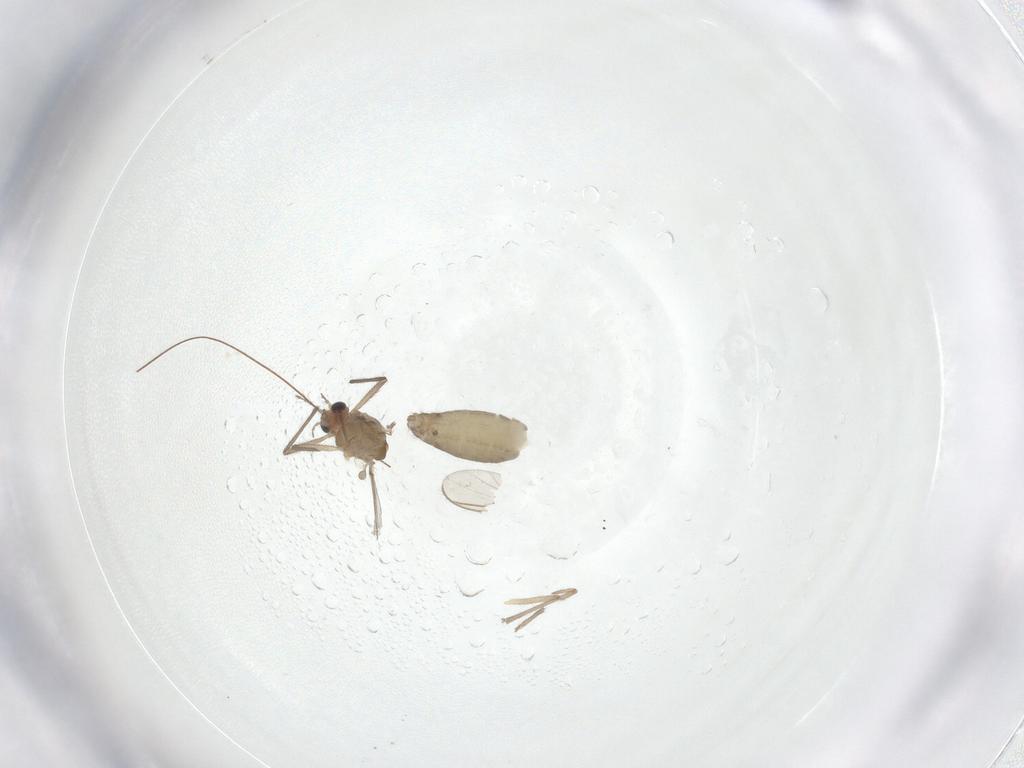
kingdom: Animalia
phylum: Arthropoda
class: Insecta
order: Diptera
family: Chironomidae
